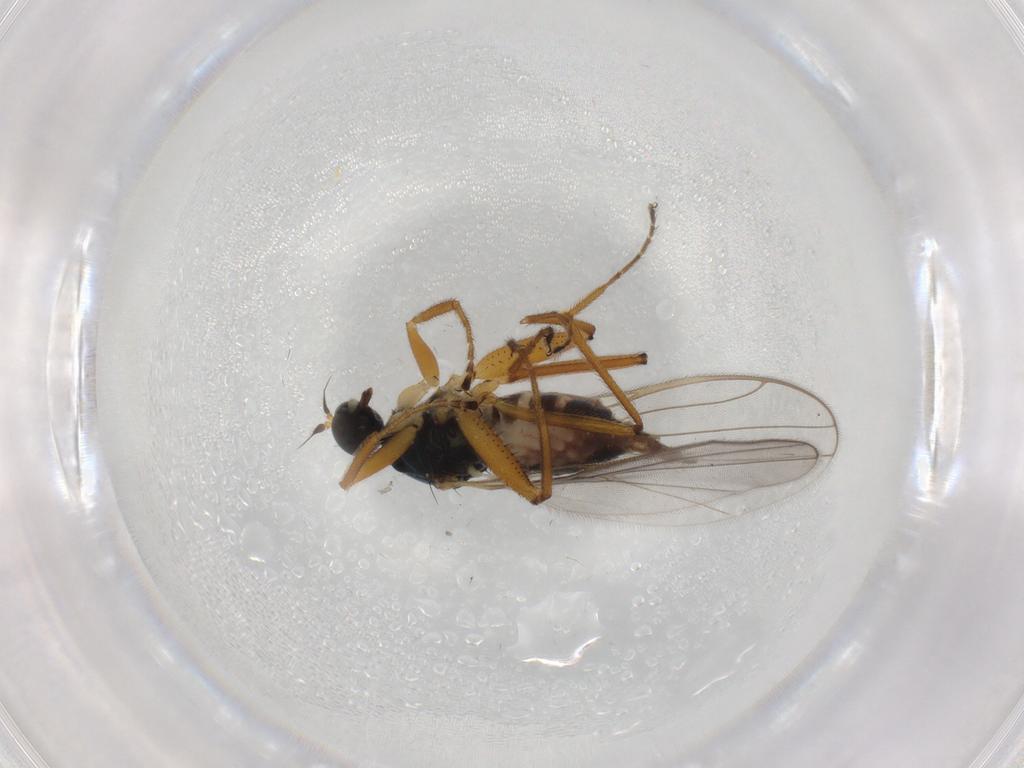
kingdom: Animalia
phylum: Arthropoda
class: Insecta
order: Diptera
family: Hybotidae
